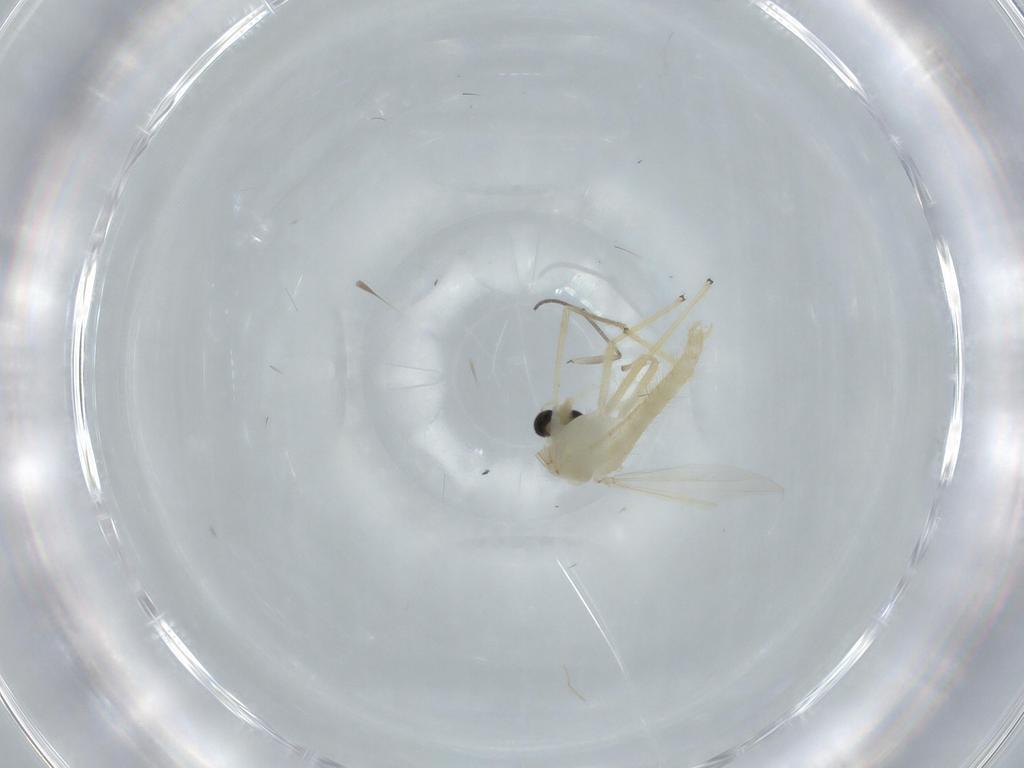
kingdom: Animalia
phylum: Arthropoda
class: Insecta
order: Diptera
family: Chironomidae
